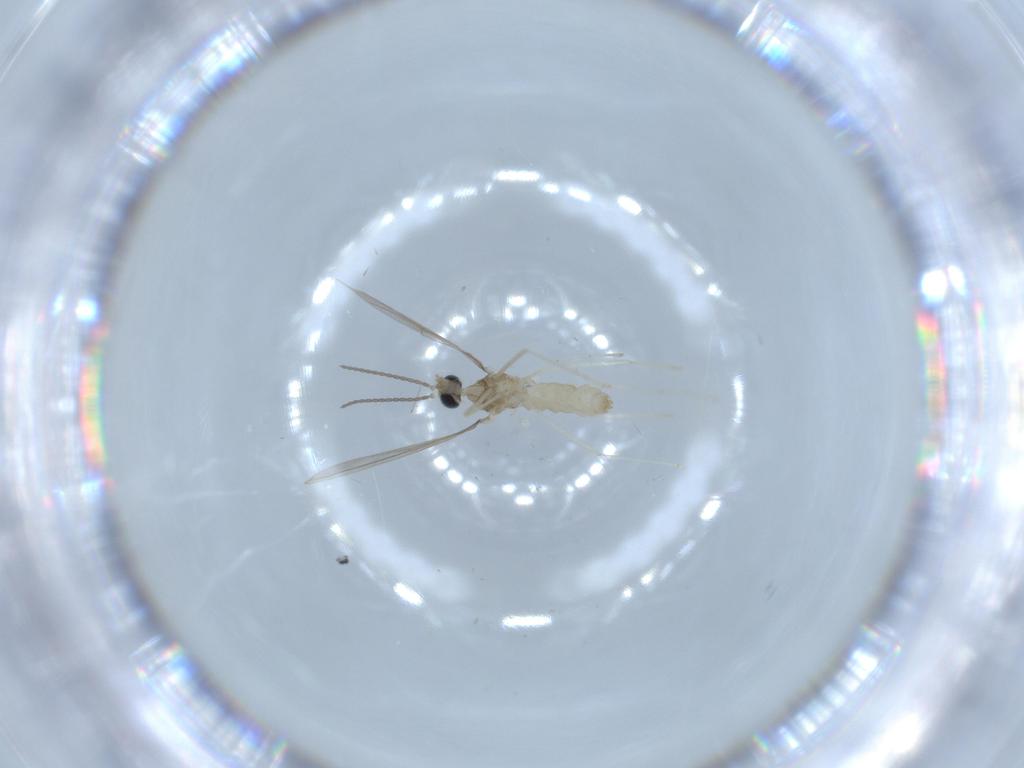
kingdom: Animalia
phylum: Arthropoda
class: Insecta
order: Diptera
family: Cecidomyiidae
